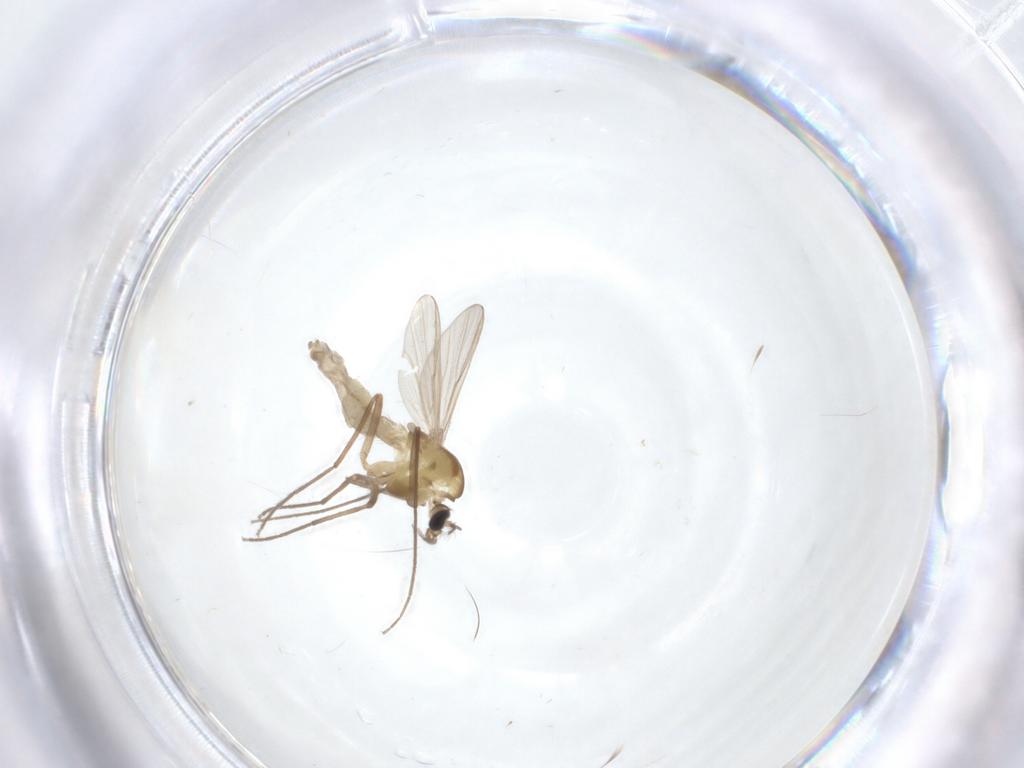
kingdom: Animalia
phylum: Arthropoda
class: Insecta
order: Diptera
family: Chironomidae
